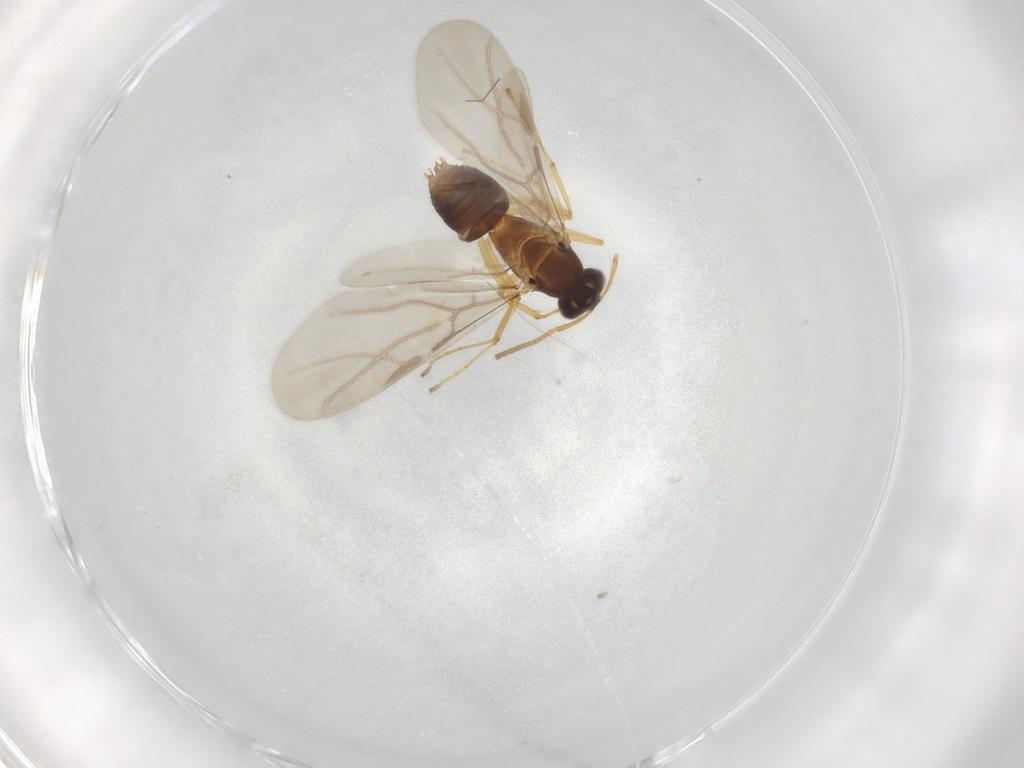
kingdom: Animalia
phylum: Arthropoda
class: Insecta
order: Hymenoptera
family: Formicidae
